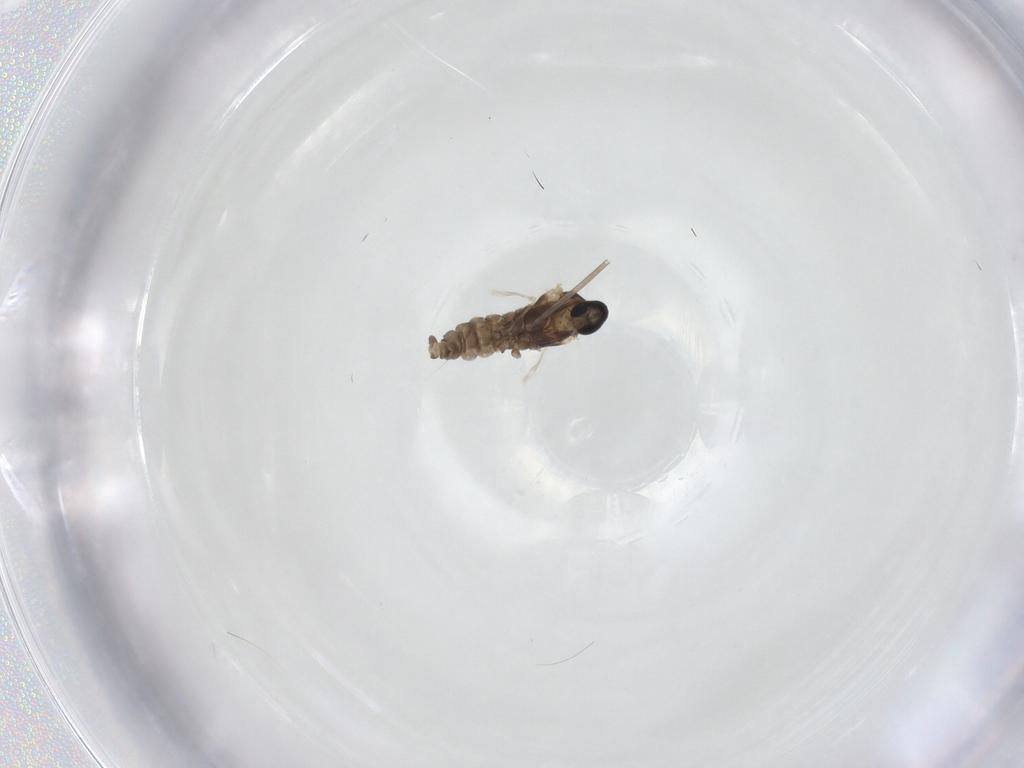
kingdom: Animalia
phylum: Arthropoda
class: Insecta
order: Diptera
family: Cecidomyiidae
